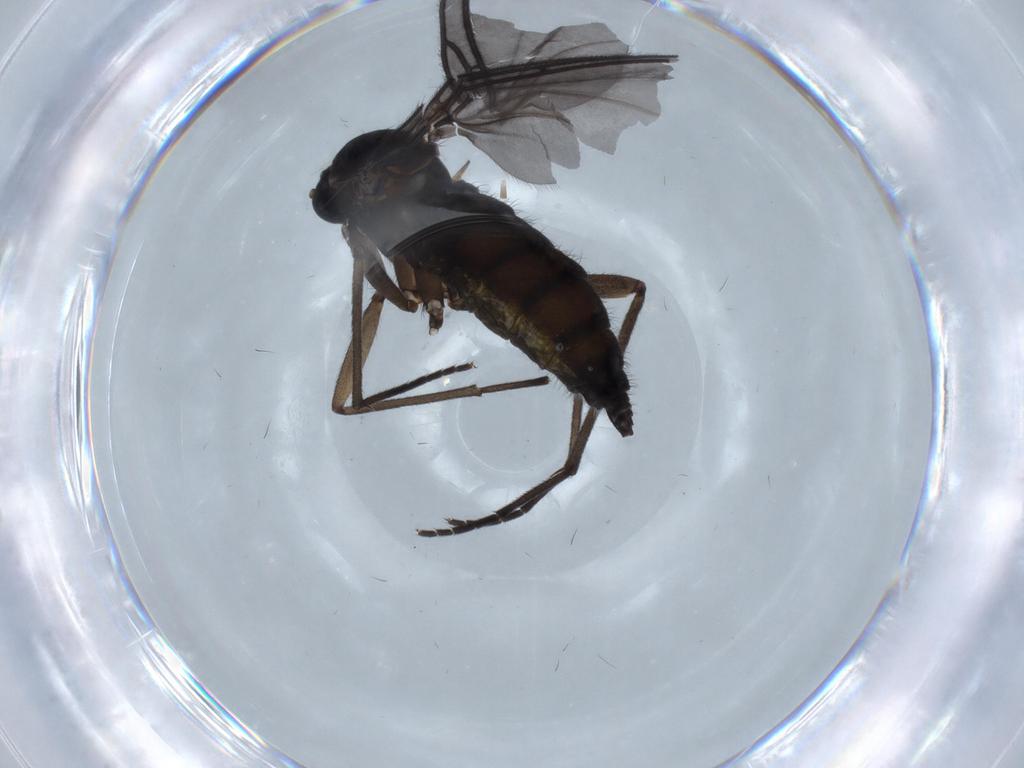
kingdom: Animalia
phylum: Arthropoda
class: Insecta
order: Diptera
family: Sciaridae
